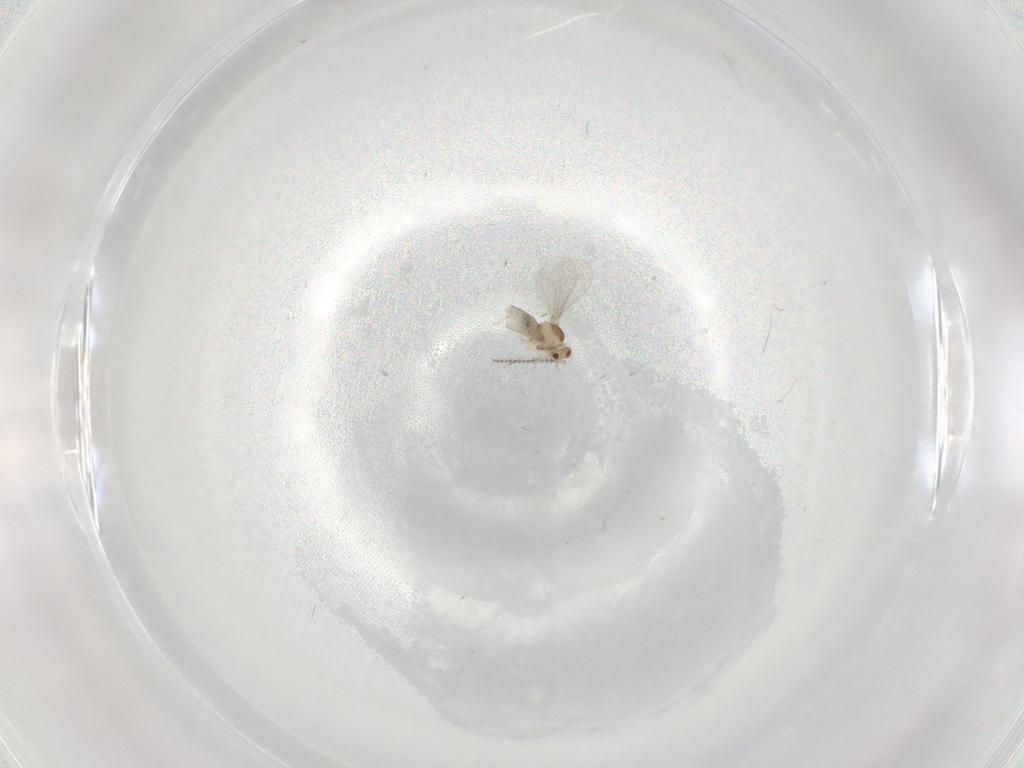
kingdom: Animalia
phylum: Arthropoda
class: Insecta
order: Diptera
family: Cecidomyiidae
